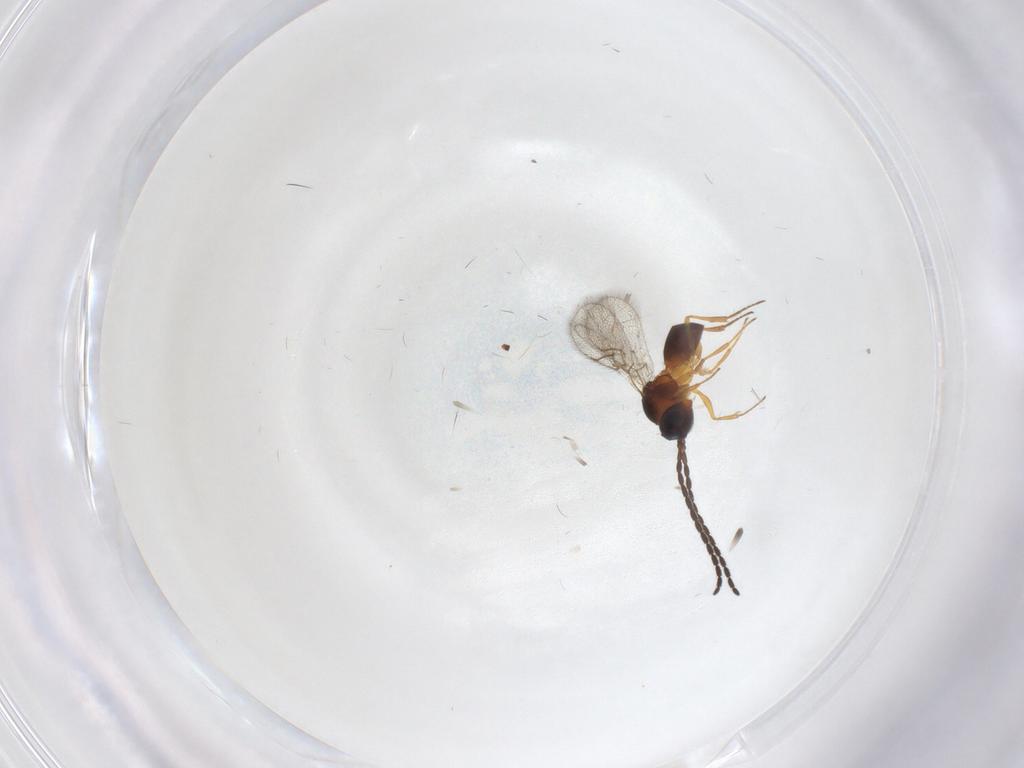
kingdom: Animalia
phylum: Arthropoda
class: Insecta
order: Hymenoptera
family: Figitidae
